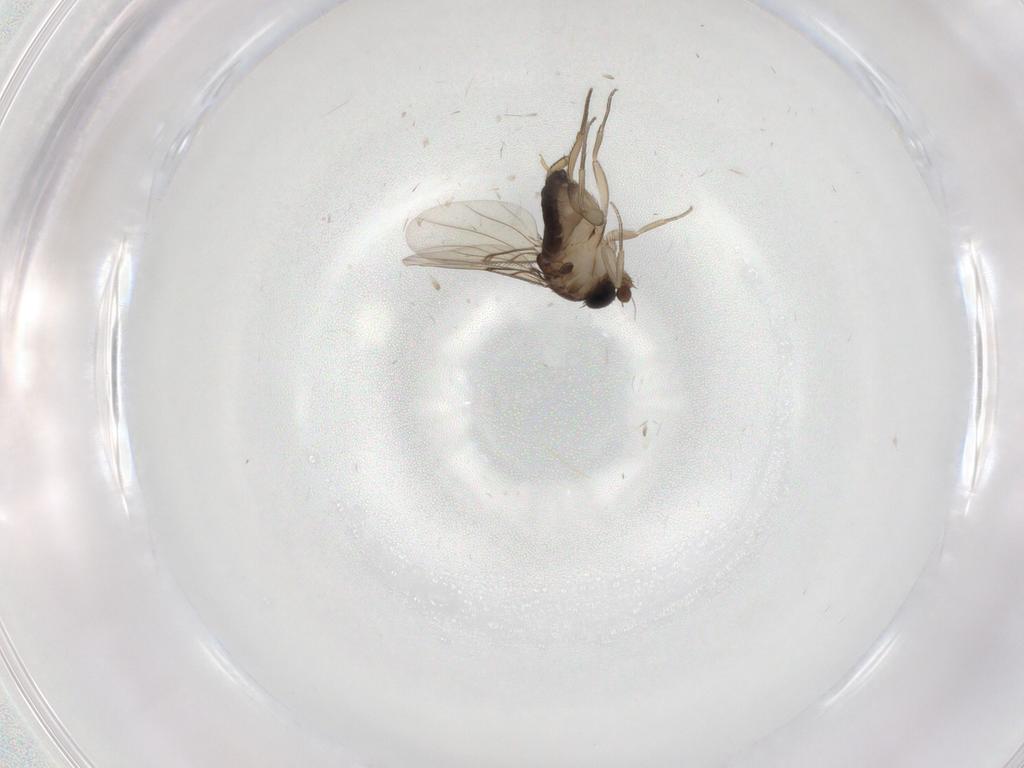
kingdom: Animalia
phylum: Arthropoda
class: Insecta
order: Diptera
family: Phoridae
